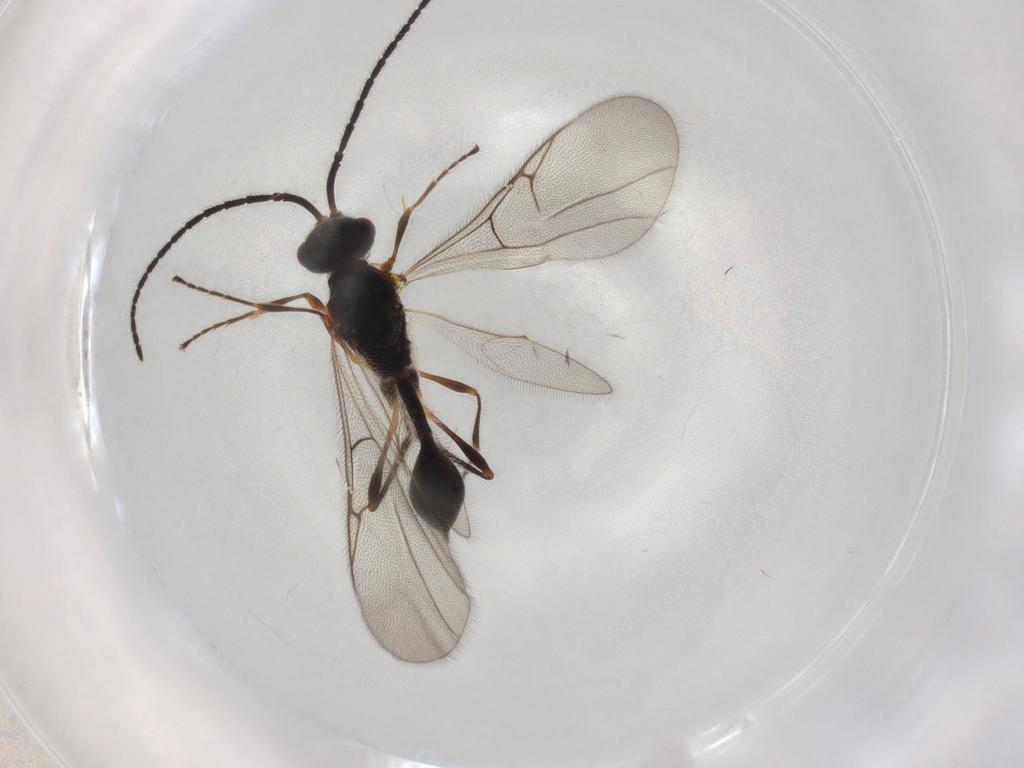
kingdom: Animalia
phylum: Arthropoda
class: Insecta
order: Hymenoptera
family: Diapriidae
